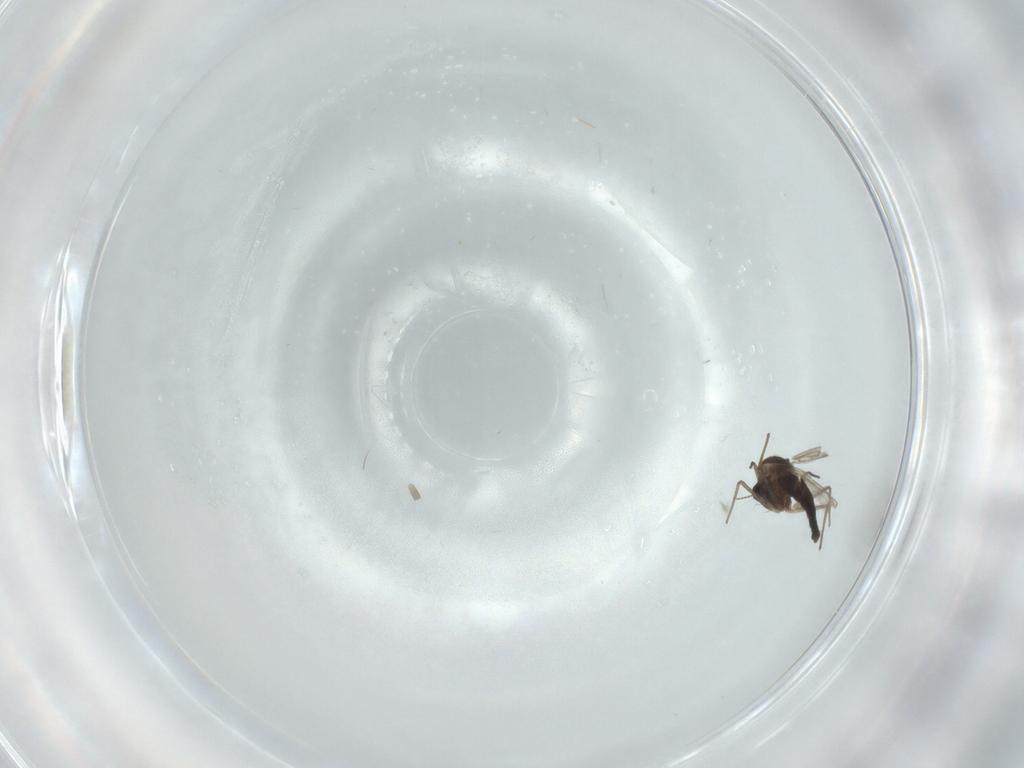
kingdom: Animalia
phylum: Arthropoda
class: Insecta
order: Diptera
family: Chironomidae
